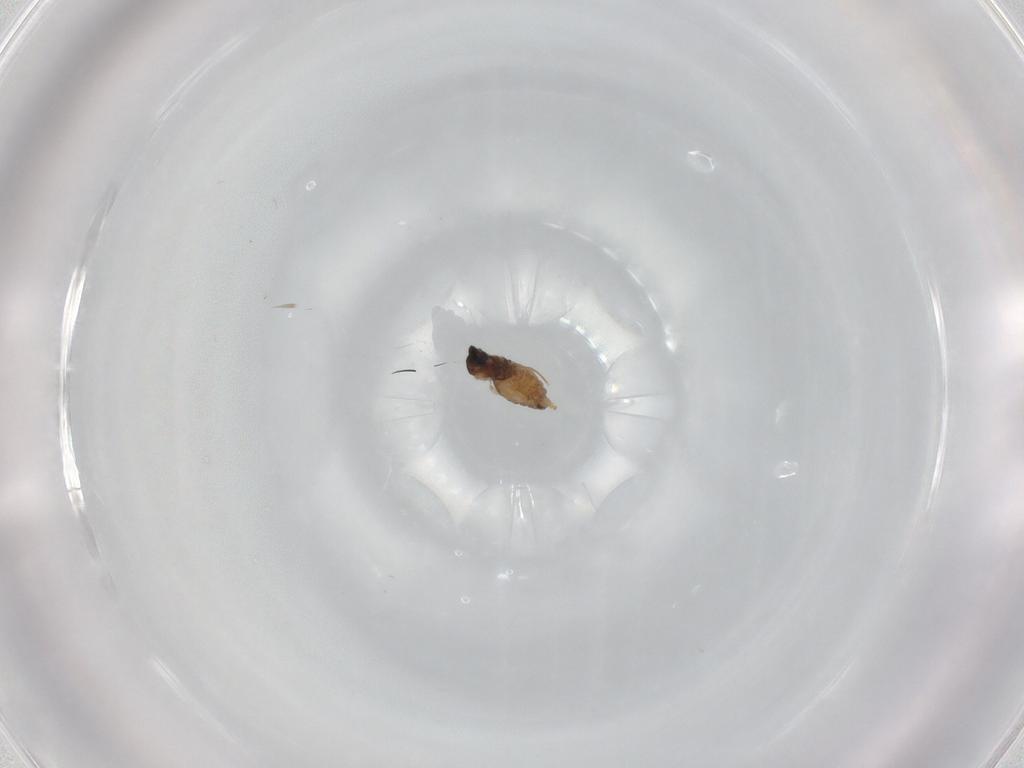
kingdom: Animalia
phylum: Arthropoda
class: Insecta
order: Diptera
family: Cecidomyiidae
